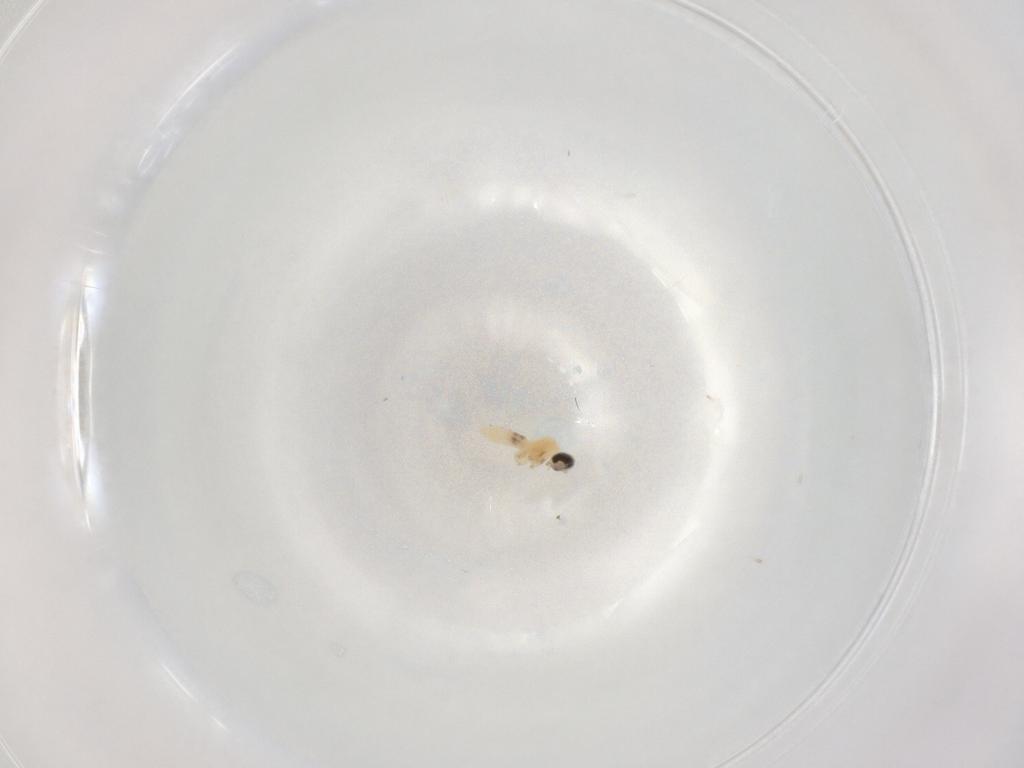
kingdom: Animalia
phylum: Arthropoda
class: Insecta
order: Diptera
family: Cecidomyiidae
